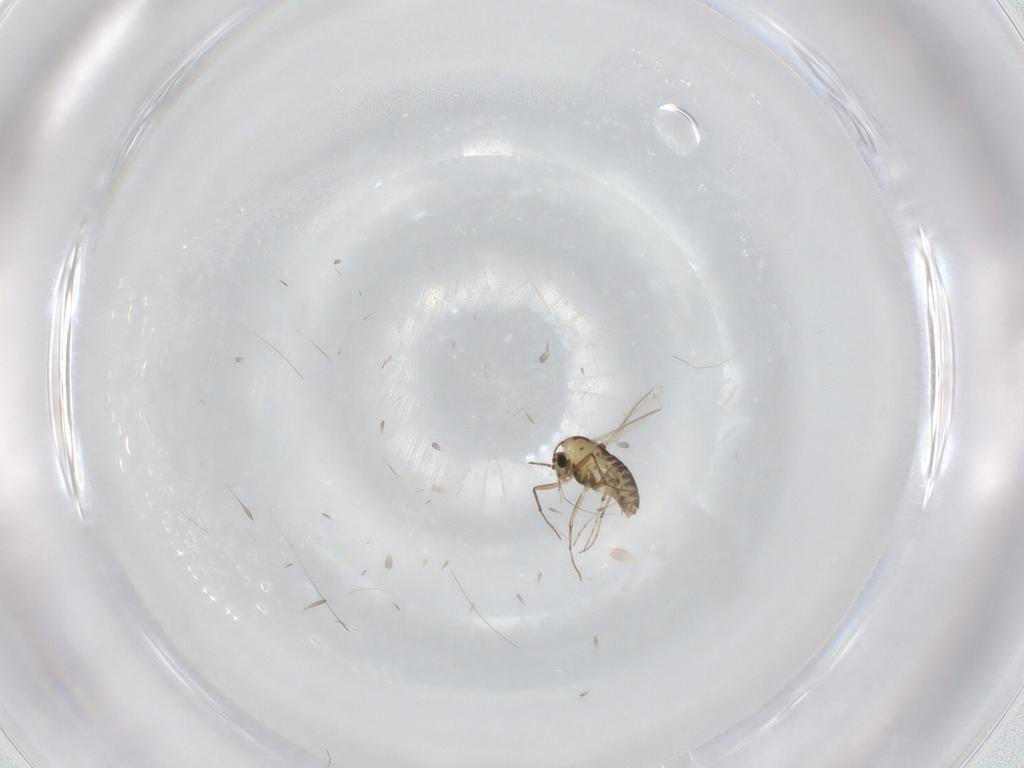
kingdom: Animalia
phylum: Arthropoda
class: Insecta
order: Diptera
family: Chironomidae
